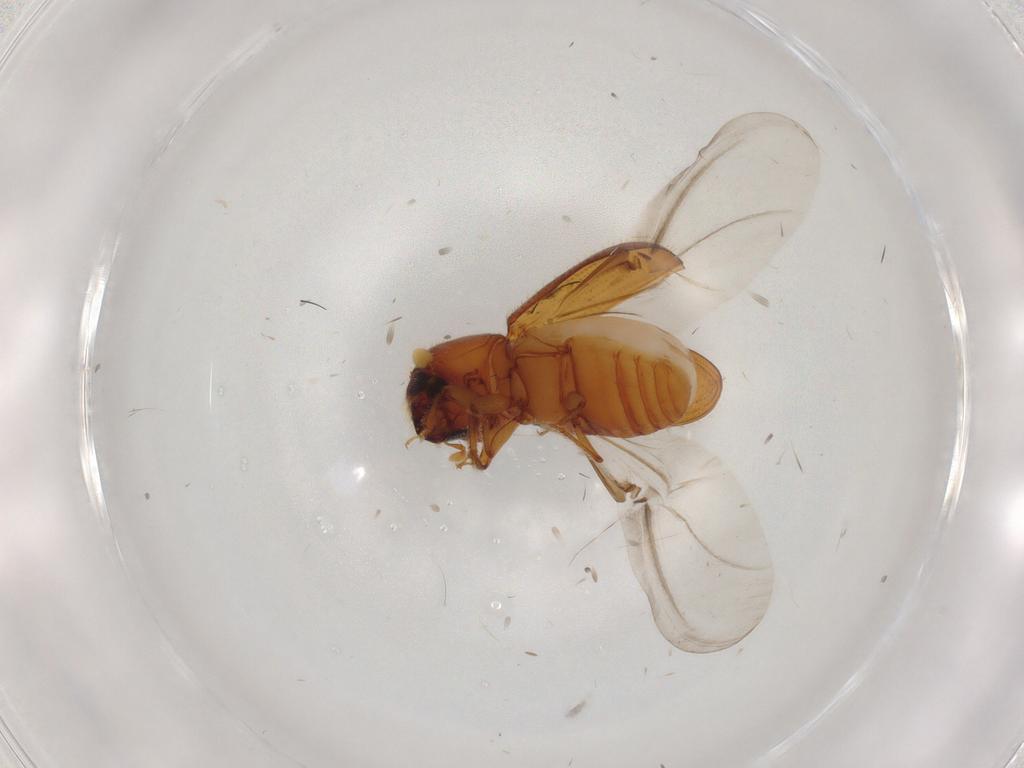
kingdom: Animalia
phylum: Arthropoda
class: Insecta
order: Coleoptera
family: Curculionidae
